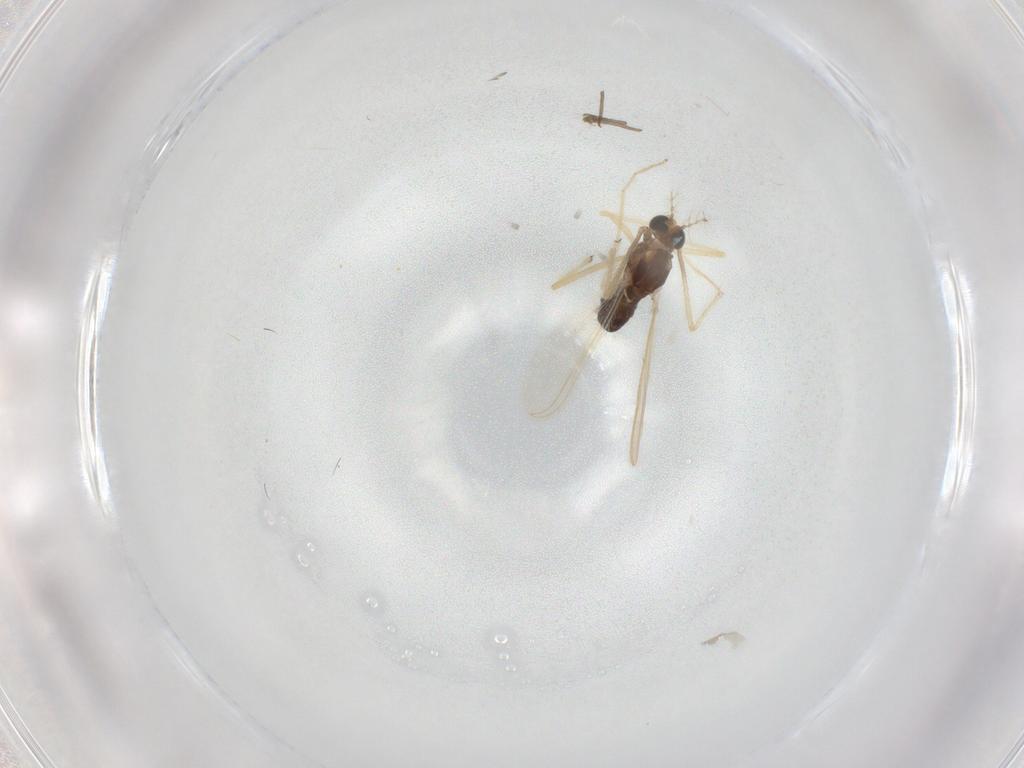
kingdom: Animalia
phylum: Arthropoda
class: Insecta
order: Diptera
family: Chironomidae
